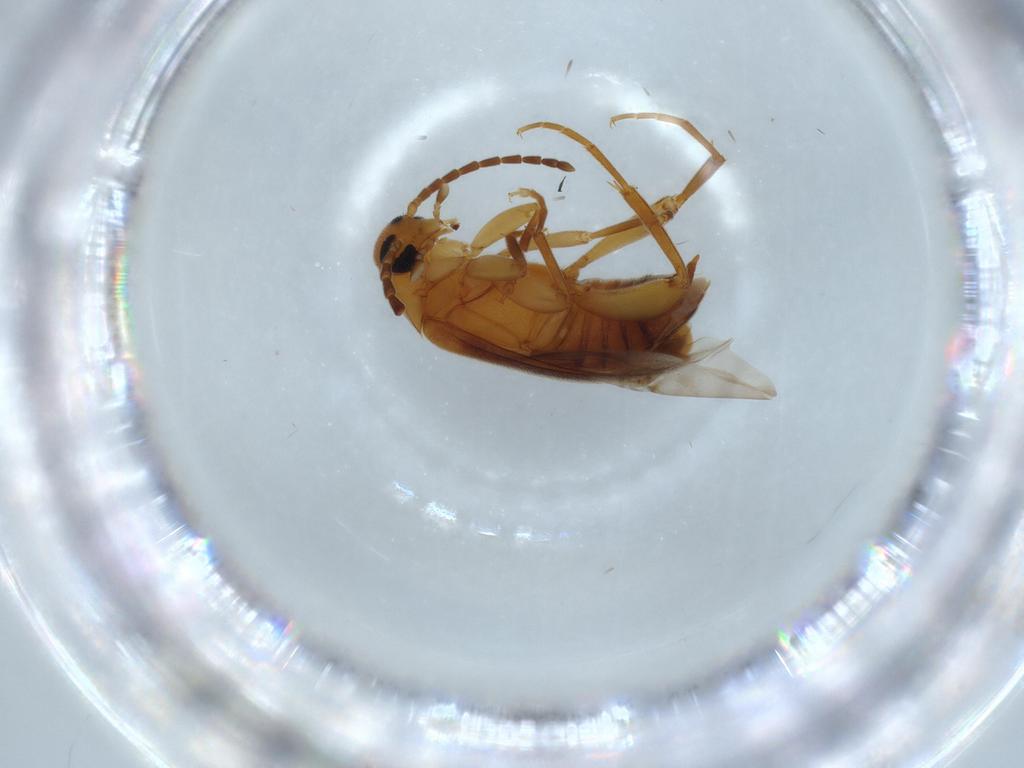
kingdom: Animalia
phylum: Arthropoda
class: Insecta
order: Coleoptera
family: Scraptiidae
